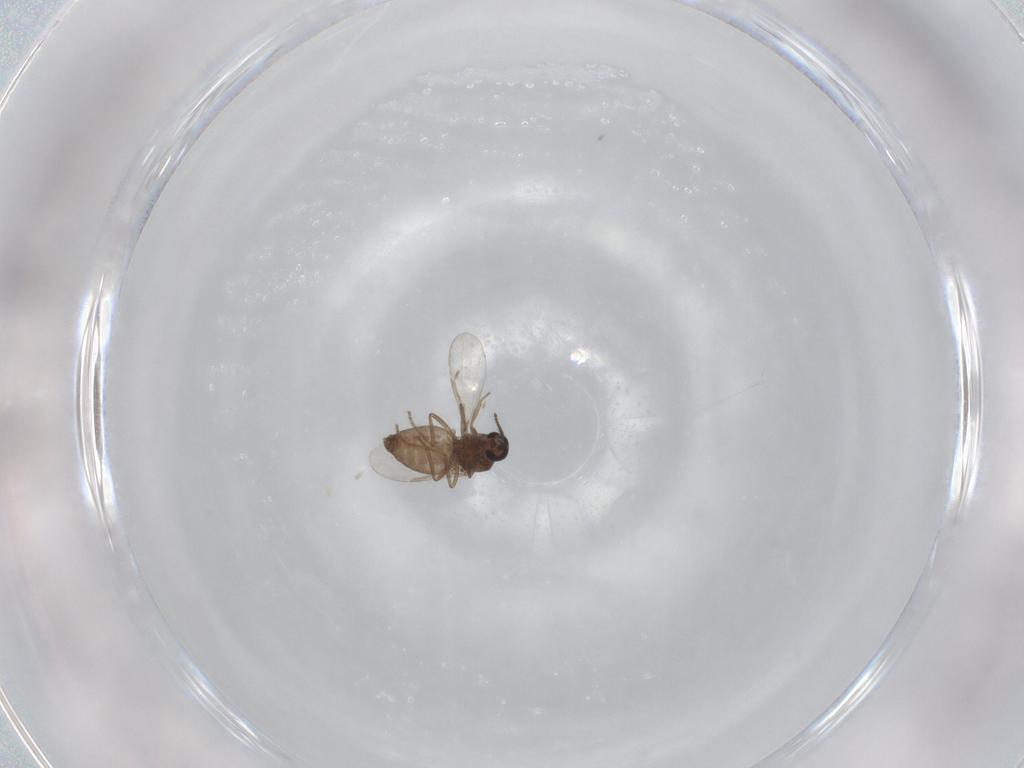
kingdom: Animalia
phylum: Arthropoda
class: Insecta
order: Diptera
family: Ceratopogonidae
